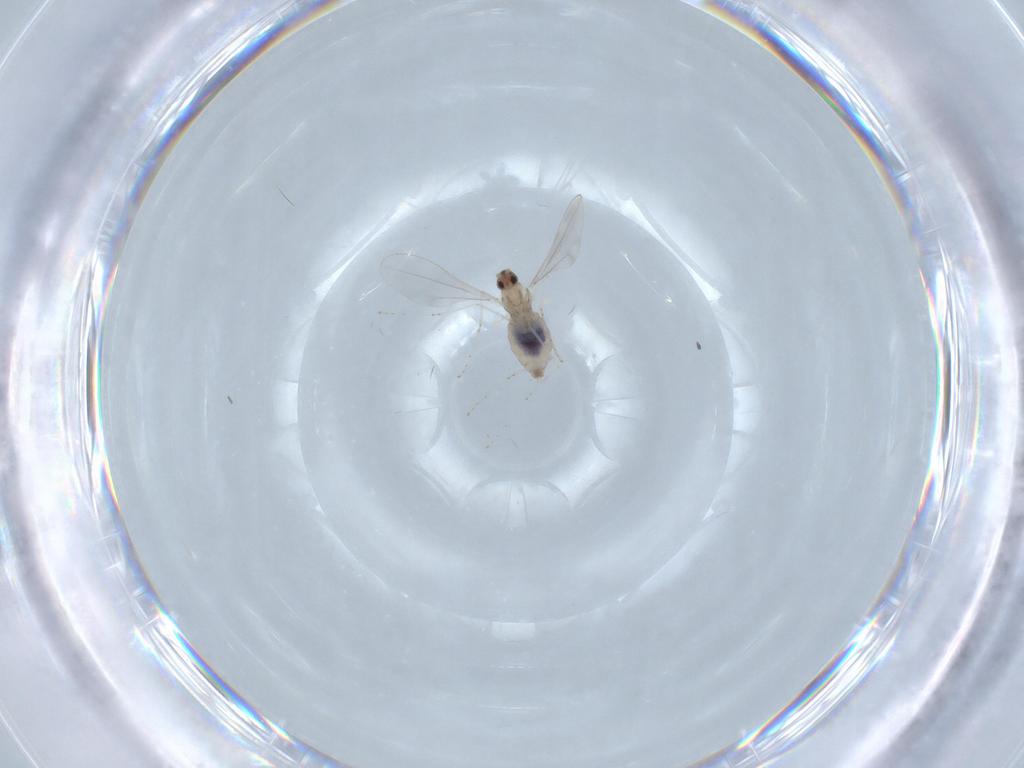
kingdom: Animalia
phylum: Arthropoda
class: Insecta
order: Diptera
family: Cecidomyiidae
